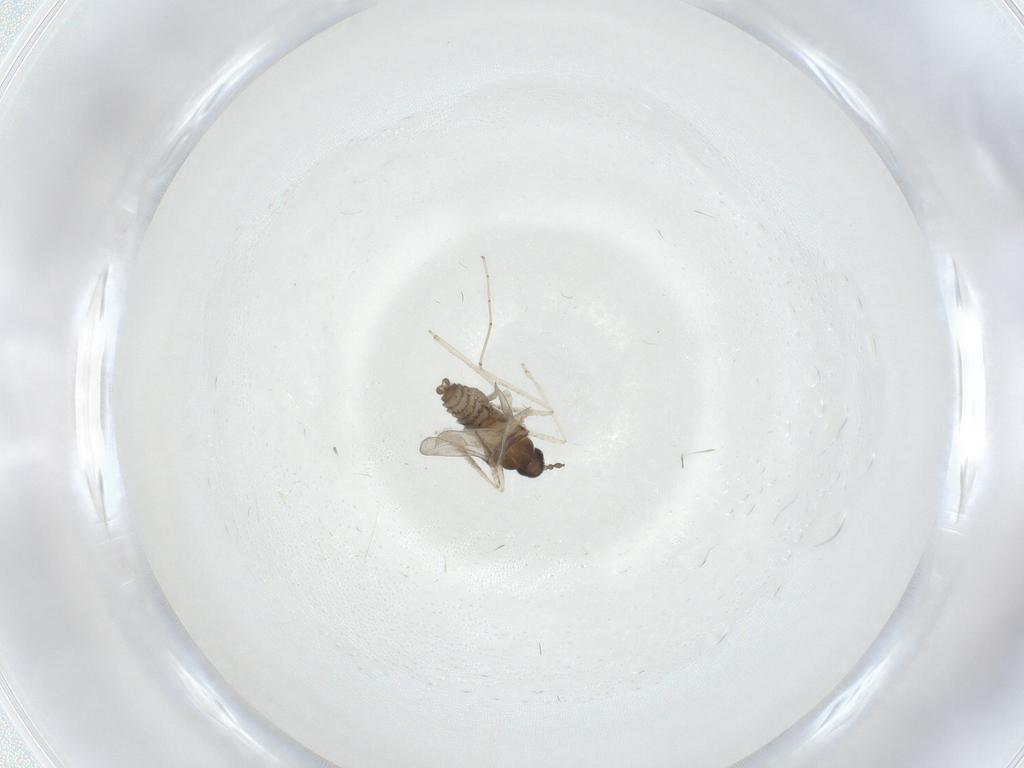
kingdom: Animalia
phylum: Arthropoda
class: Insecta
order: Diptera
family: Cecidomyiidae
